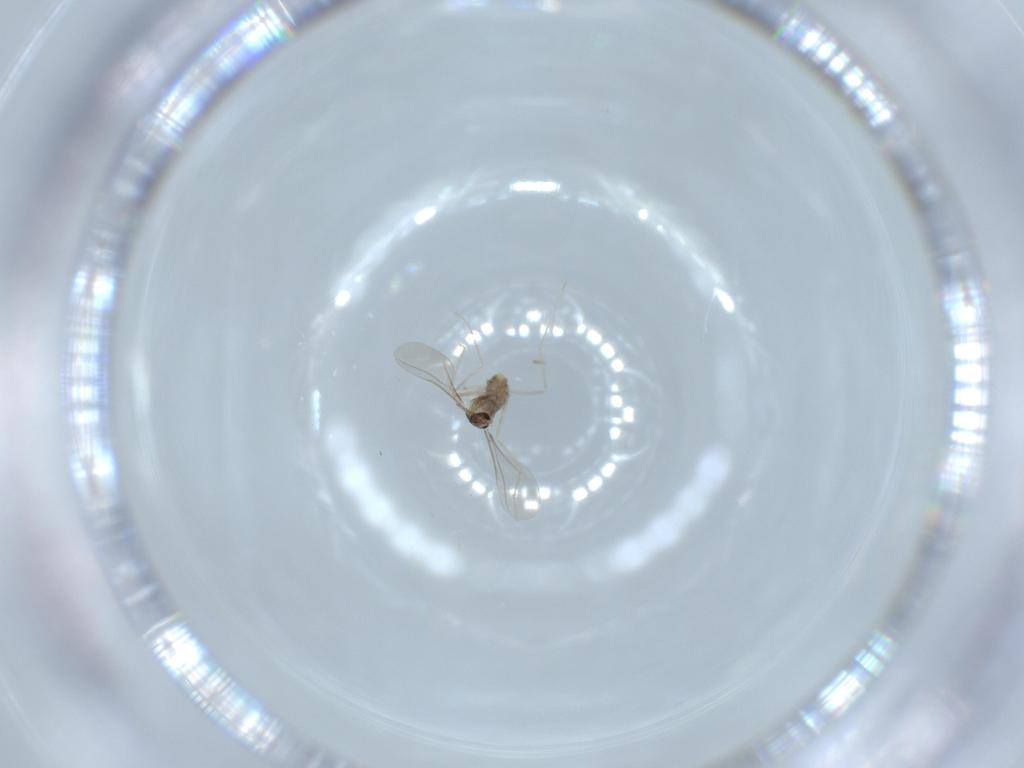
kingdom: Animalia
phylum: Arthropoda
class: Insecta
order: Diptera
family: Cecidomyiidae
